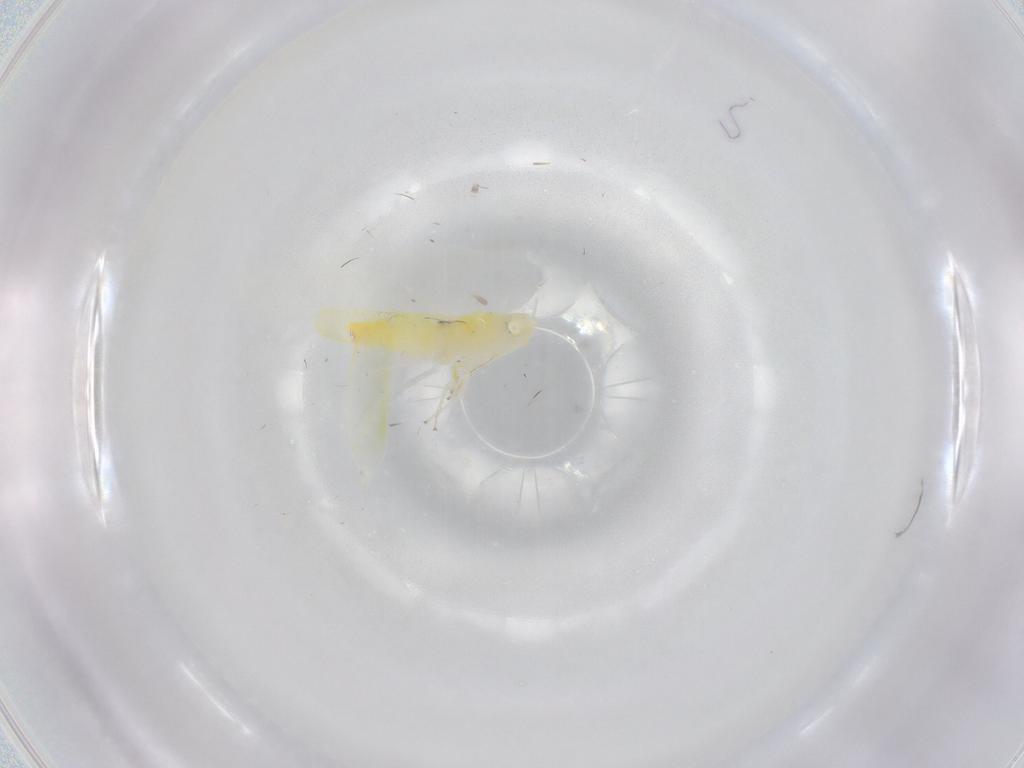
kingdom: Animalia
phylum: Arthropoda
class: Insecta
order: Hemiptera
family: Cicadellidae
